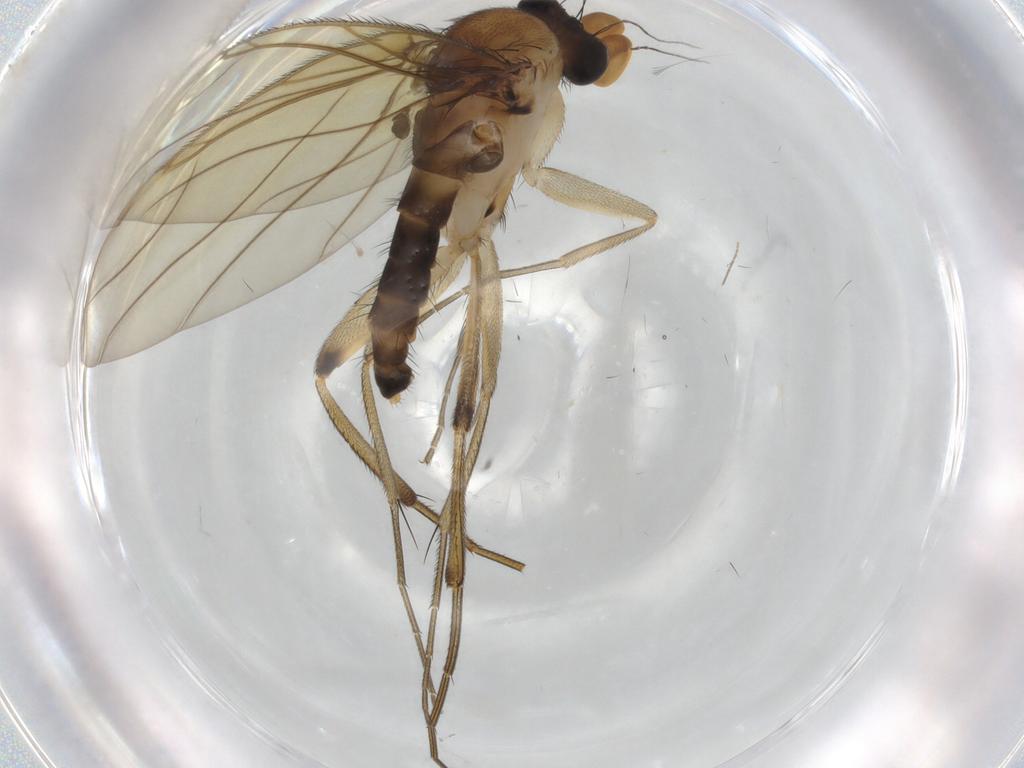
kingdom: Animalia
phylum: Arthropoda
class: Insecta
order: Diptera
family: Phoridae
